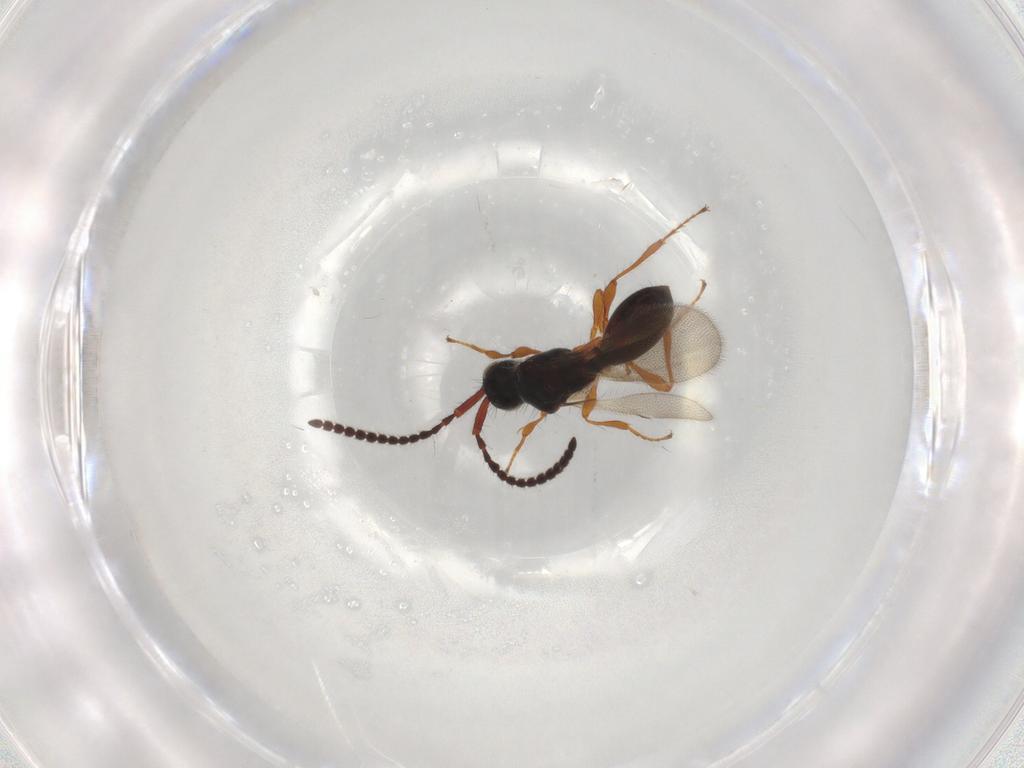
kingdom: Animalia
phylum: Arthropoda
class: Insecta
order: Hymenoptera
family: Diapriidae
